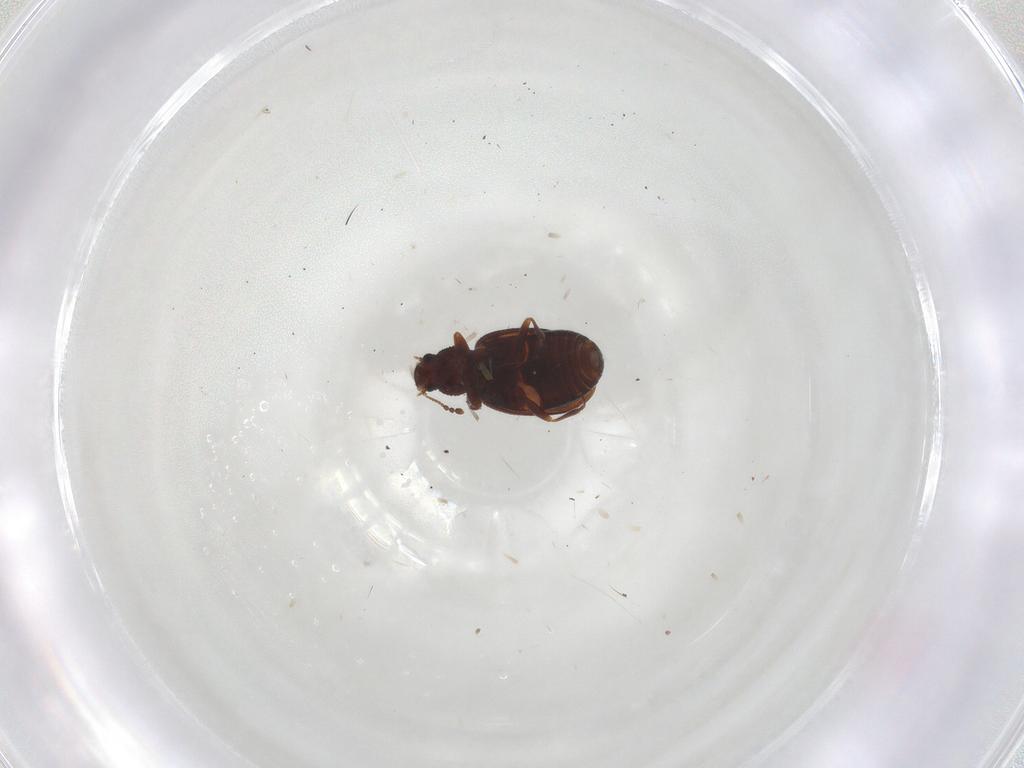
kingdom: Animalia
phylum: Arthropoda
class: Insecta
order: Coleoptera
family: Latridiidae
